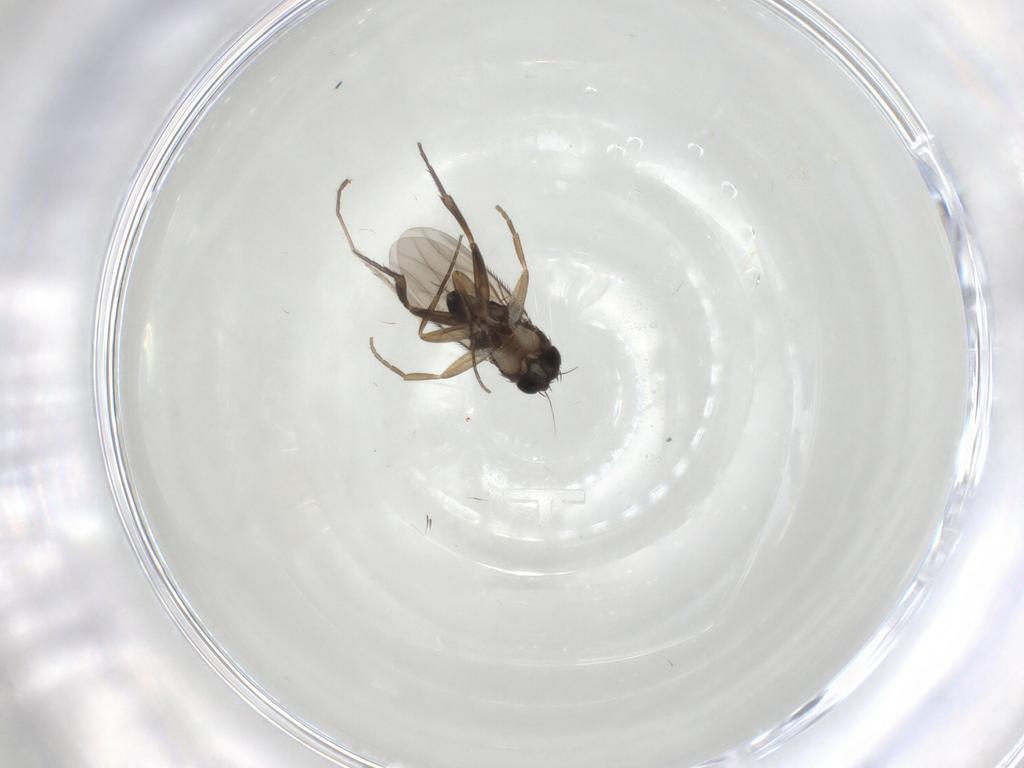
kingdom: Animalia
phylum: Arthropoda
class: Insecta
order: Diptera
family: Phoridae
